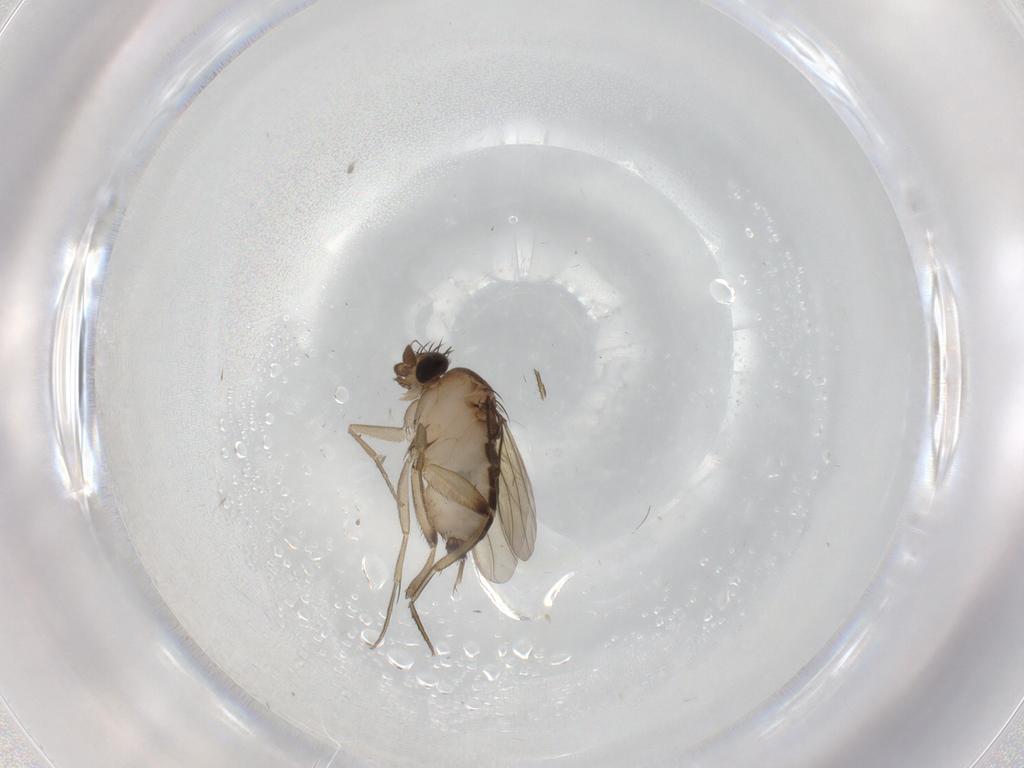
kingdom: Animalia
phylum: Arthropoda
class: Insecta
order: Diptera
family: Phoridae
